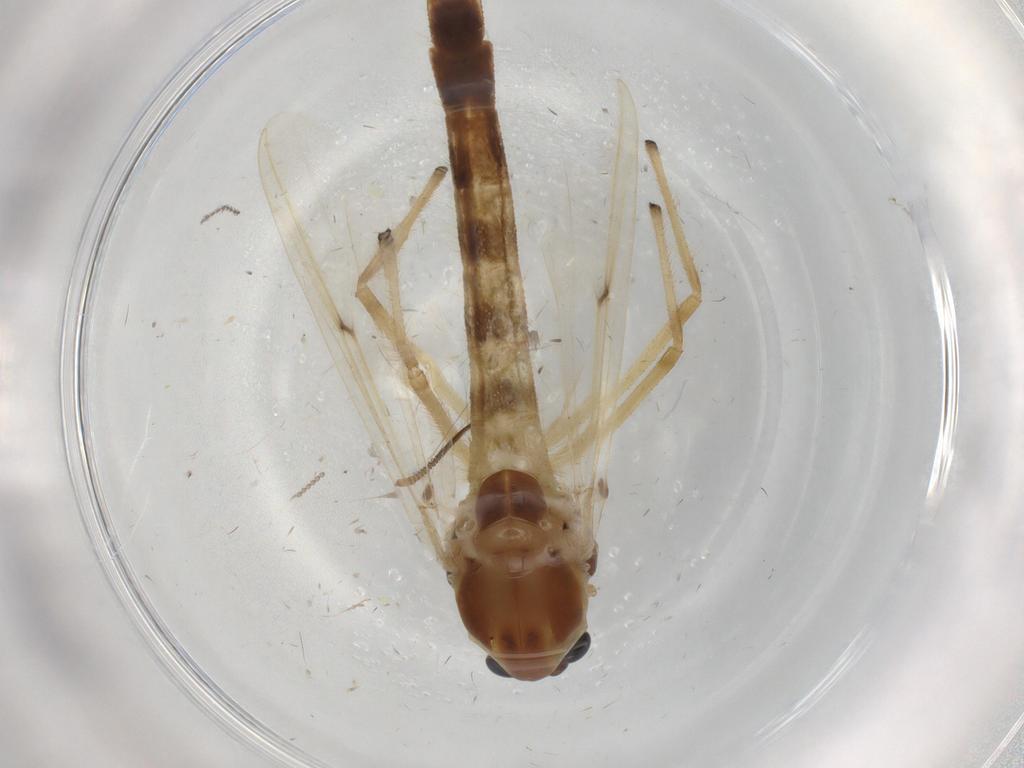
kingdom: Animalia
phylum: Arthropoda
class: Insecta
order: Diptera
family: Chironomidae
